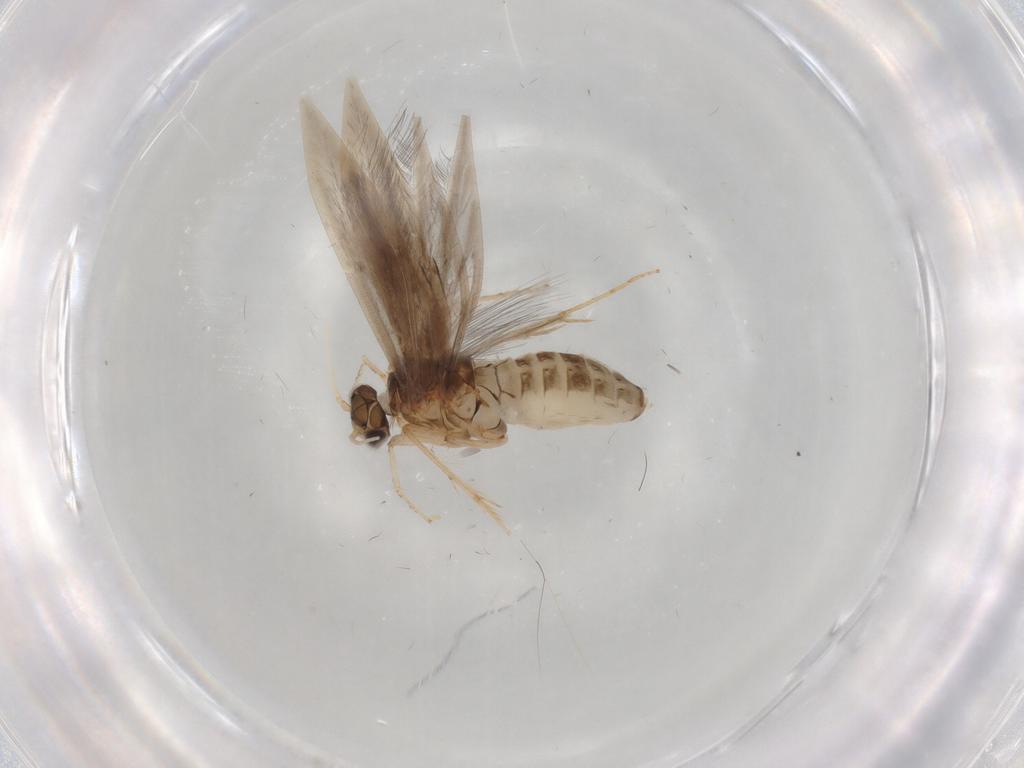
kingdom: Animalia
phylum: Arthropoda
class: Insecta
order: Trichoptera
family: Hydroptilidae
